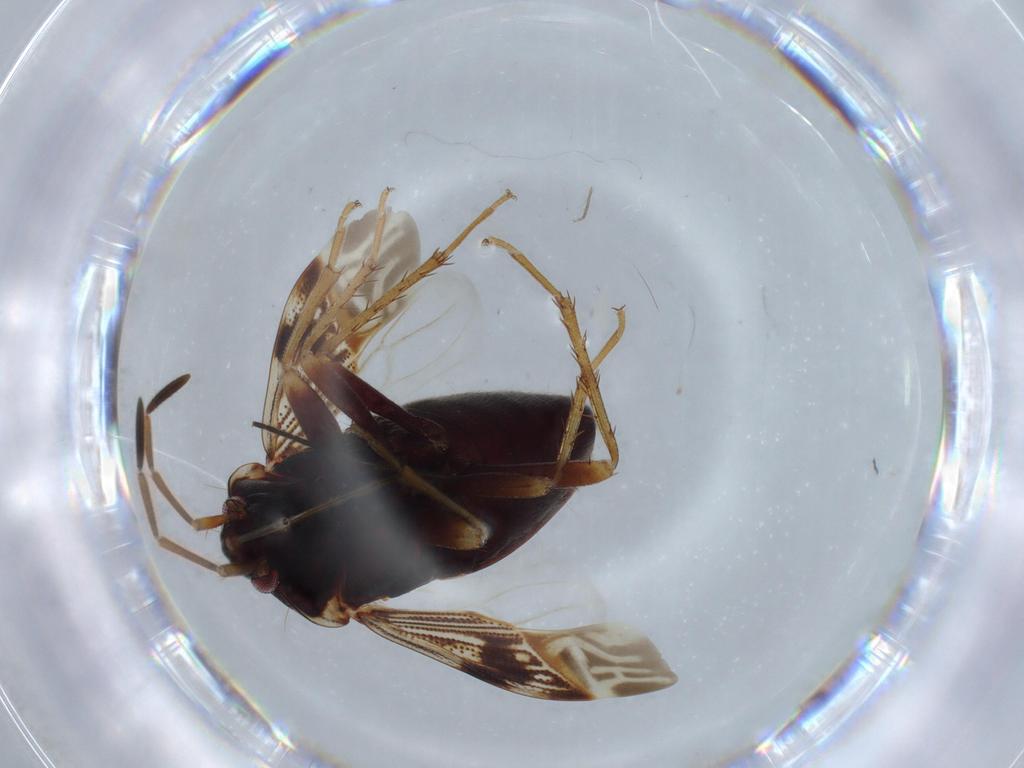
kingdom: Animalia
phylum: Arthropoda
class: Insecta
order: Hemiptera
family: Rhyparochromidae
